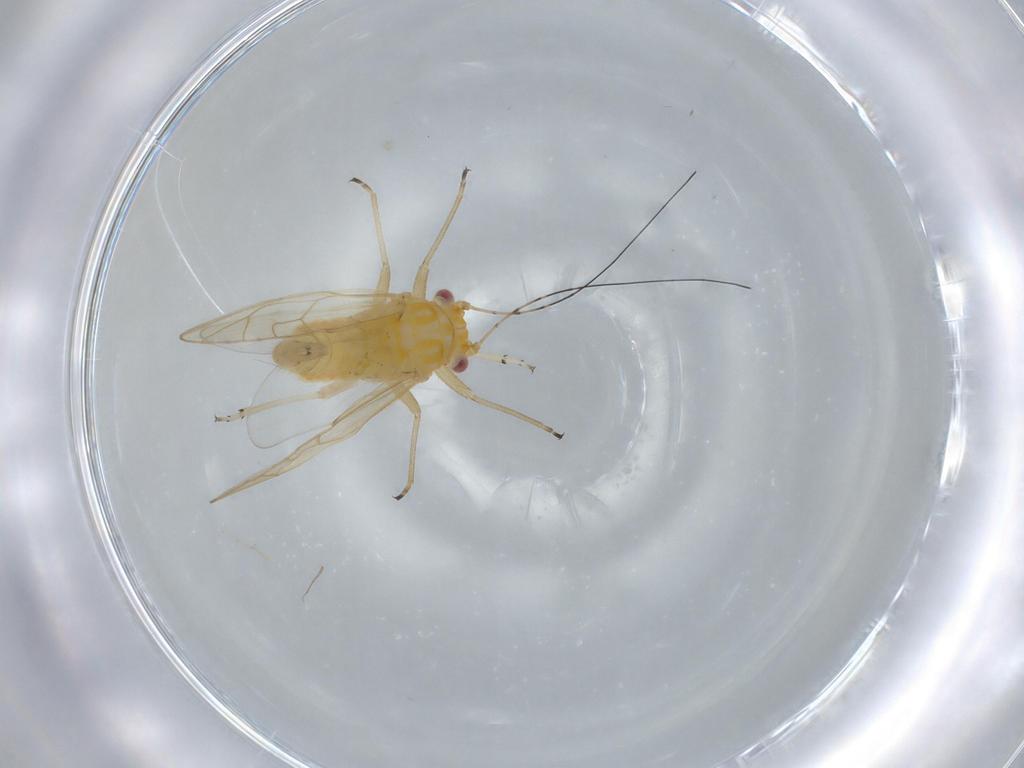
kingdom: Animalia
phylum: Arthropoda
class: Insecta
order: Hemiptera
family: Psyllidae
